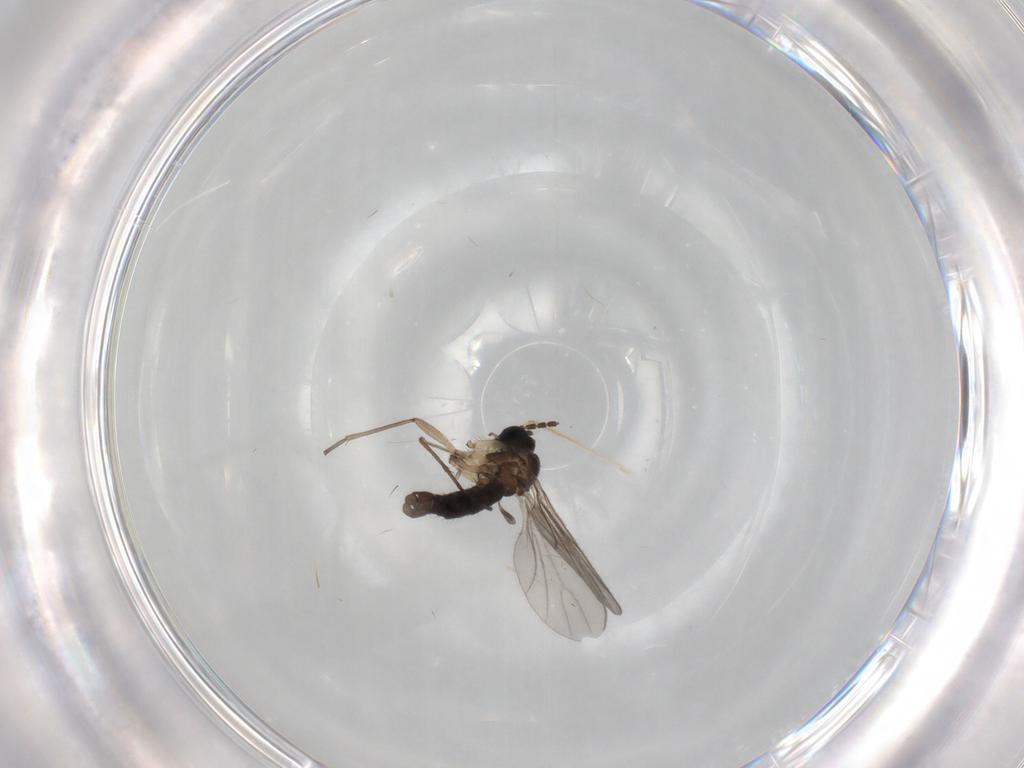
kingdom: Animalia
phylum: Arthropoda
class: Insecta
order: Diptera
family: Sciaridae
